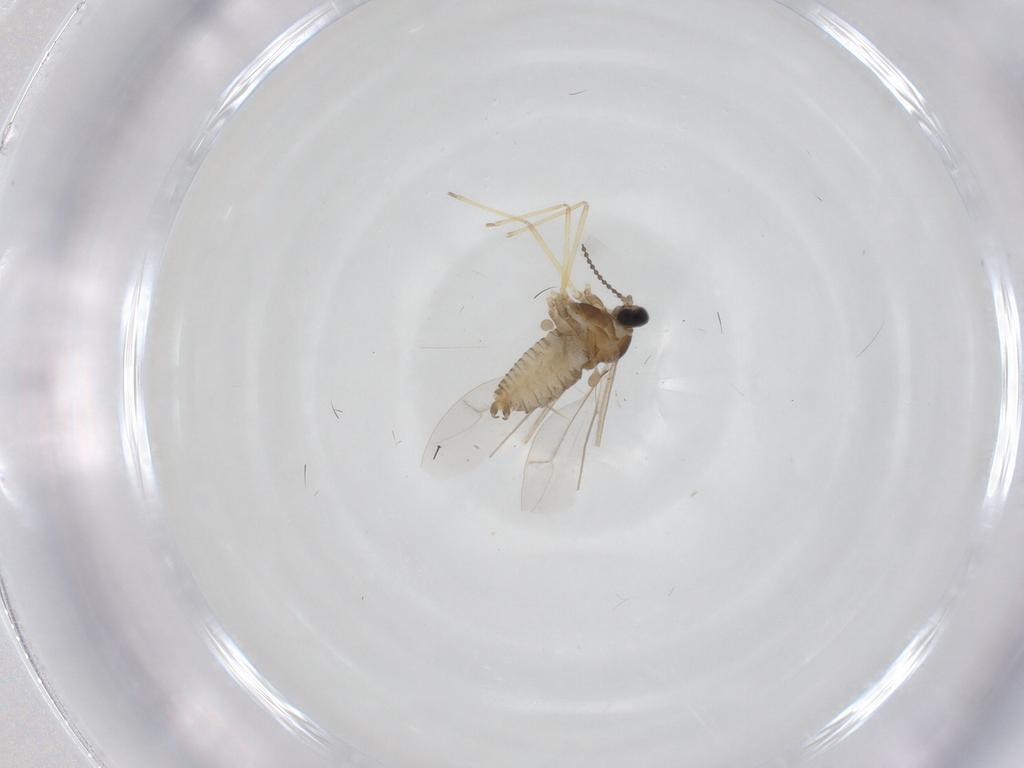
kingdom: Animalia
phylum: Arthropoda
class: Insecta
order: Diptera
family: Cecidomyiidae
